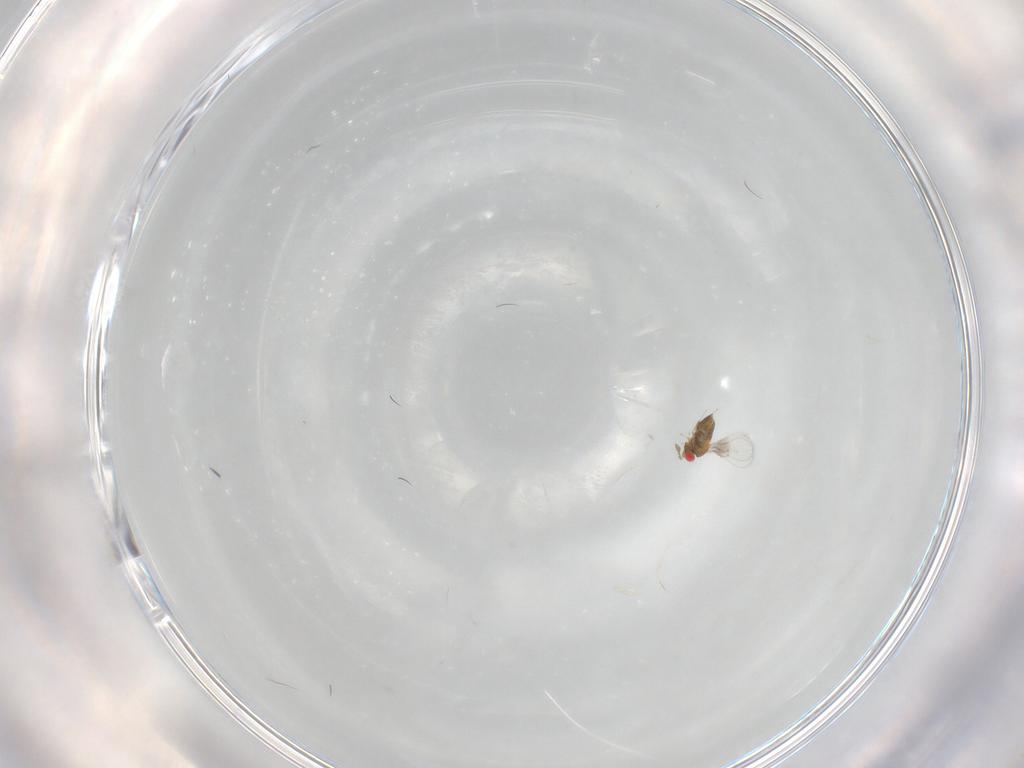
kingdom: Animalia
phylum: Arthropoda
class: Insecta
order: Hymenoptera
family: Trichogrammatidae
